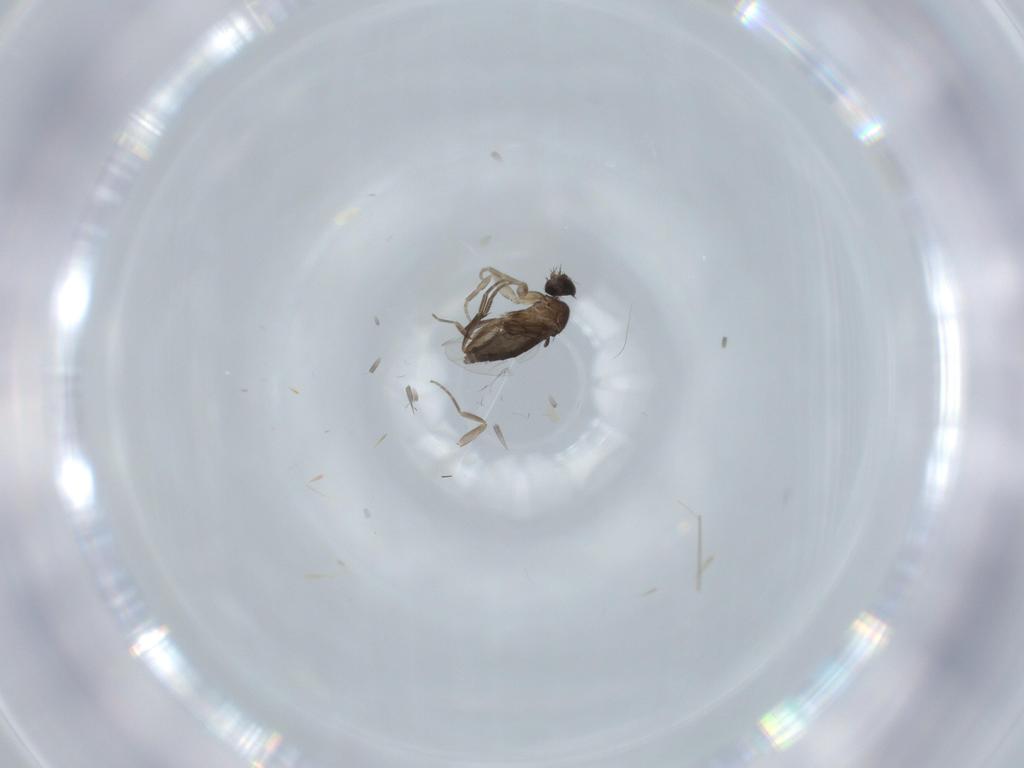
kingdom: Animalia
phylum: Arthropoda
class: Insecta
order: Diptera
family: Phoridae
